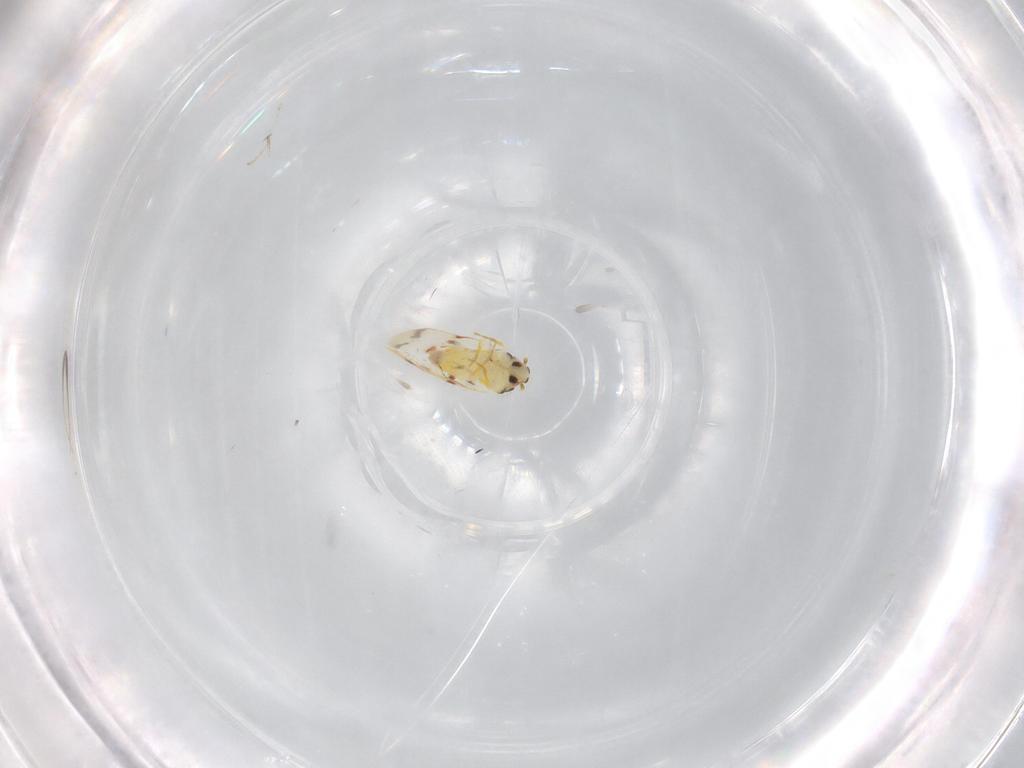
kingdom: Animalia
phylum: Arthropoda
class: Insecta
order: Hemiptera
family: Aleyrodidae
